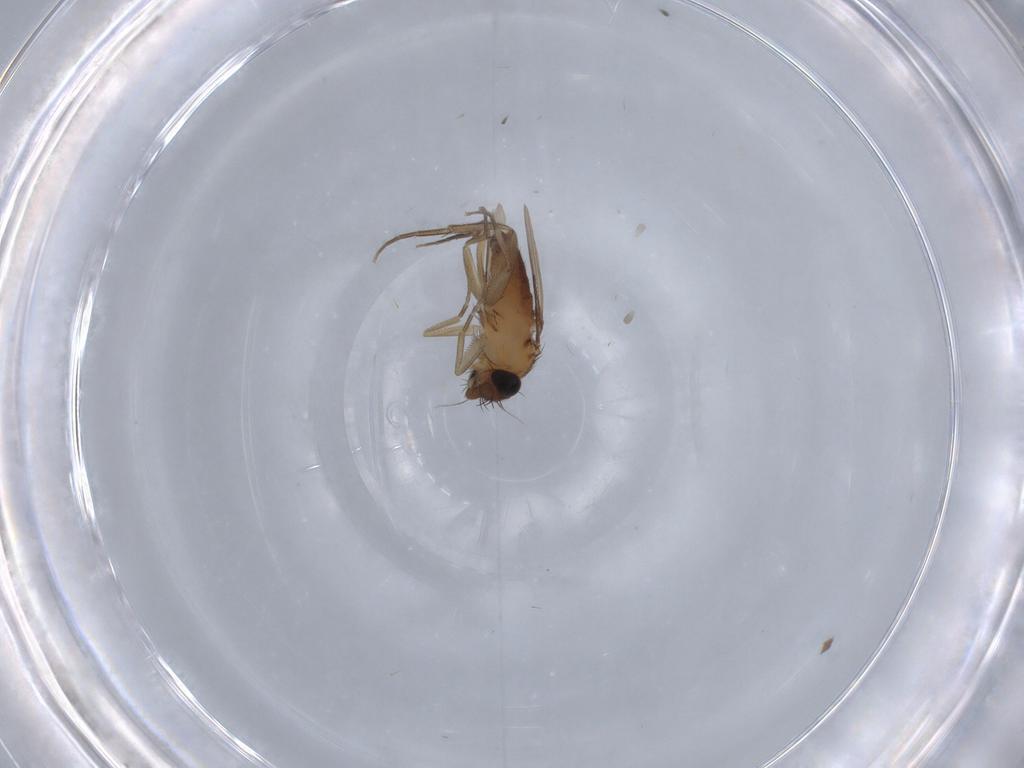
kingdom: Animalia
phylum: Arthropoda
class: Insecta
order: Diptera
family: Phoridae
